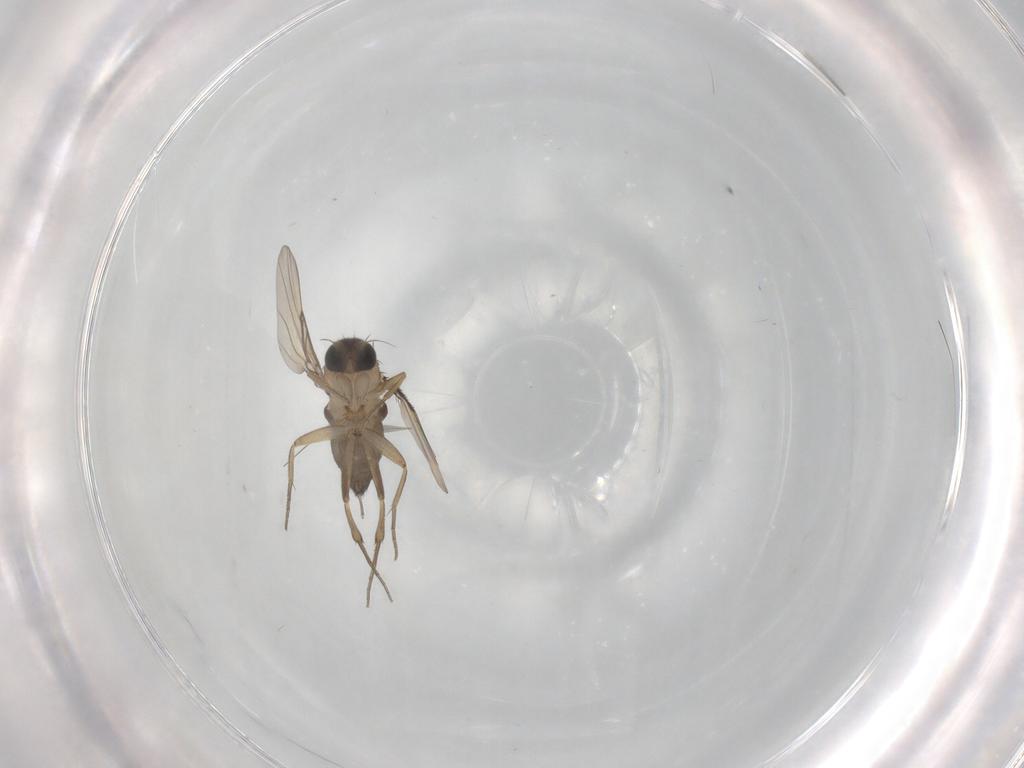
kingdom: Animalia
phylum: Arthropoda
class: Insecta
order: Diptera
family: Phoridae
